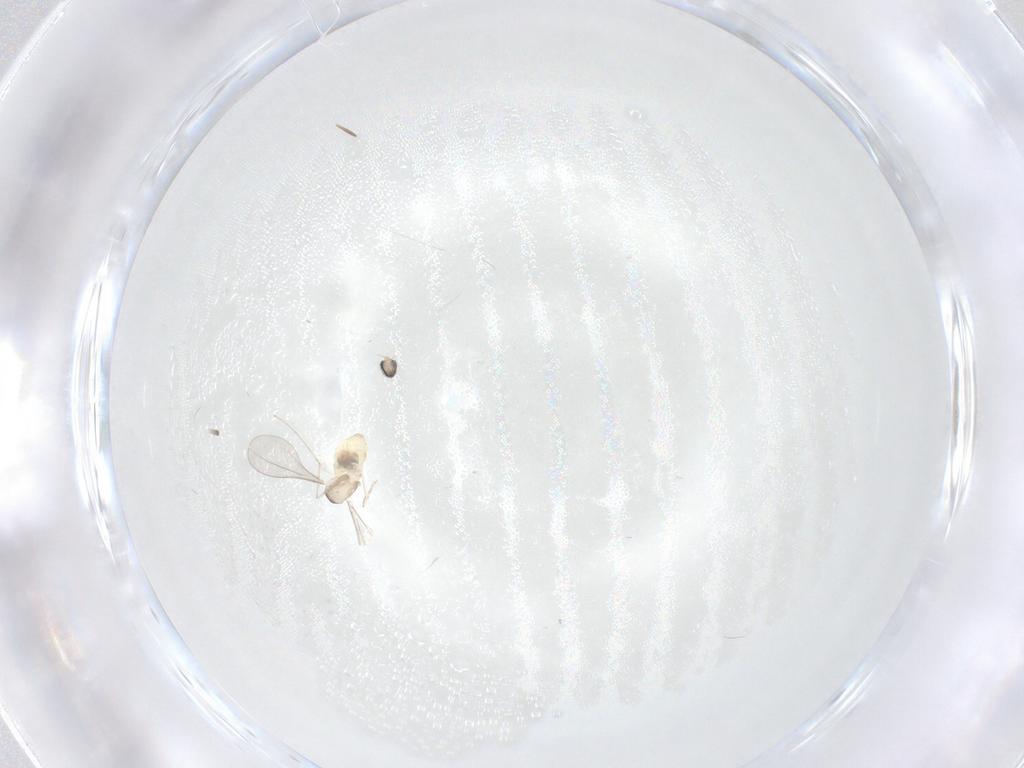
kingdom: Animalia
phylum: Arthropoda
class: Insecta
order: Diptera
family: Cecidomyiidae
